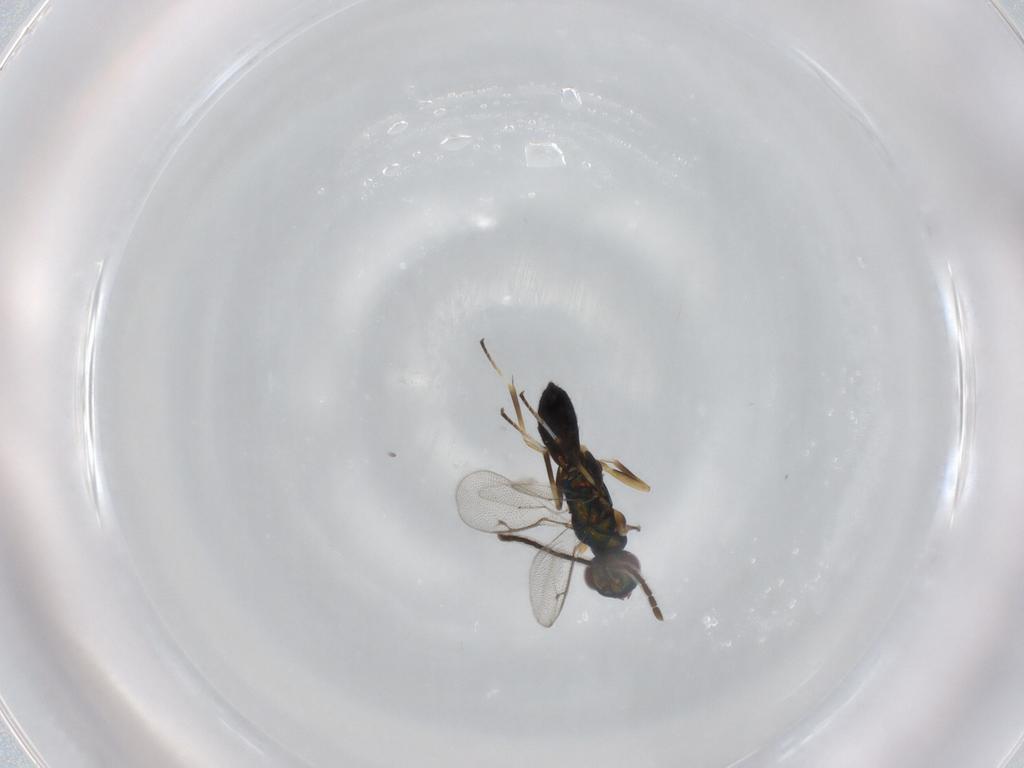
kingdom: Animalia
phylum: Arthropoda
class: Insecta
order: Hymenoptera
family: Eupelmidae
